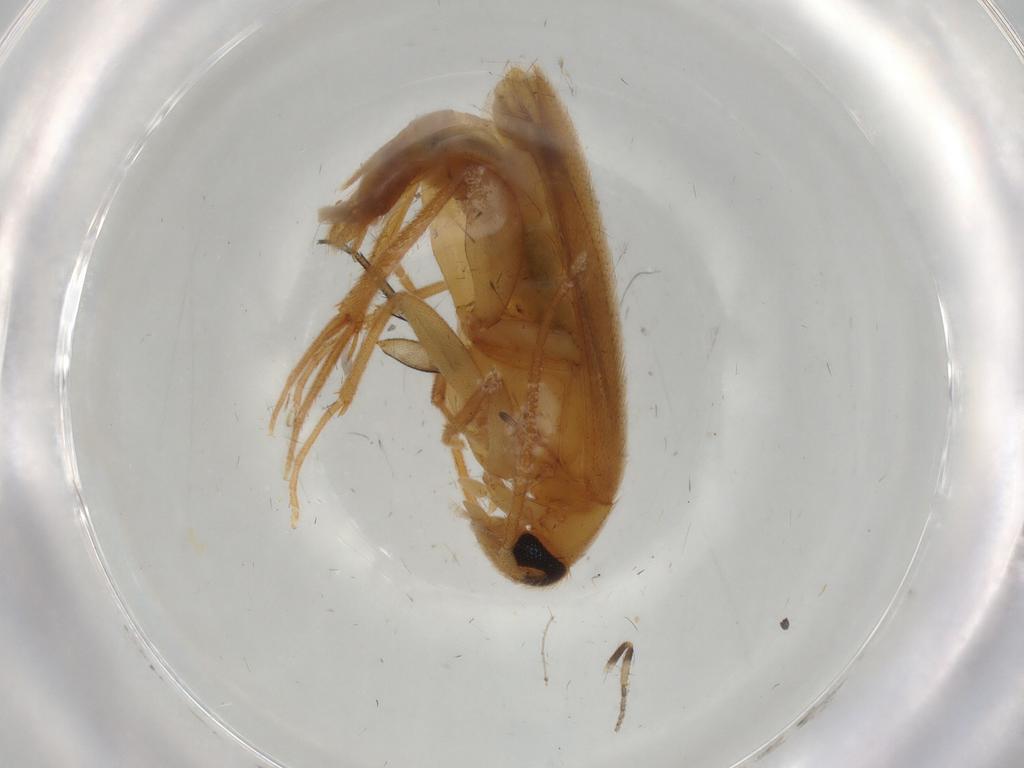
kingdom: Animalia
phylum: Arthropoda
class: Insecta
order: Coleoptera
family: Scraptiidae
